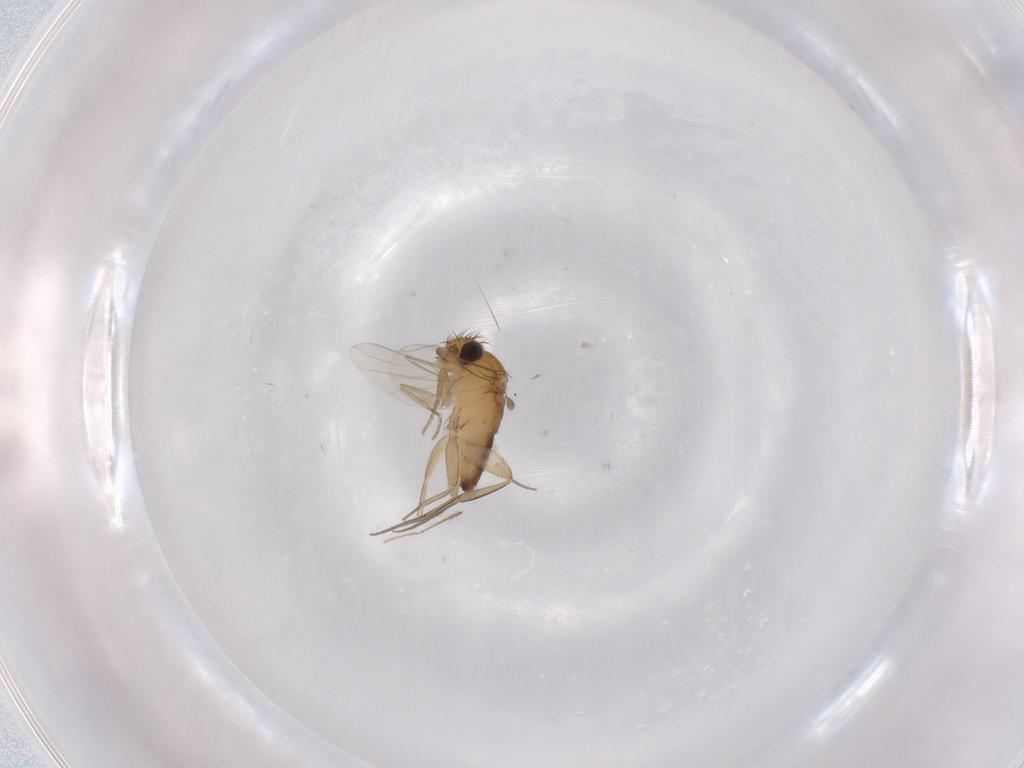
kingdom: Animalia
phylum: Arthropoda
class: Insecta
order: Diptera
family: Phoridae
